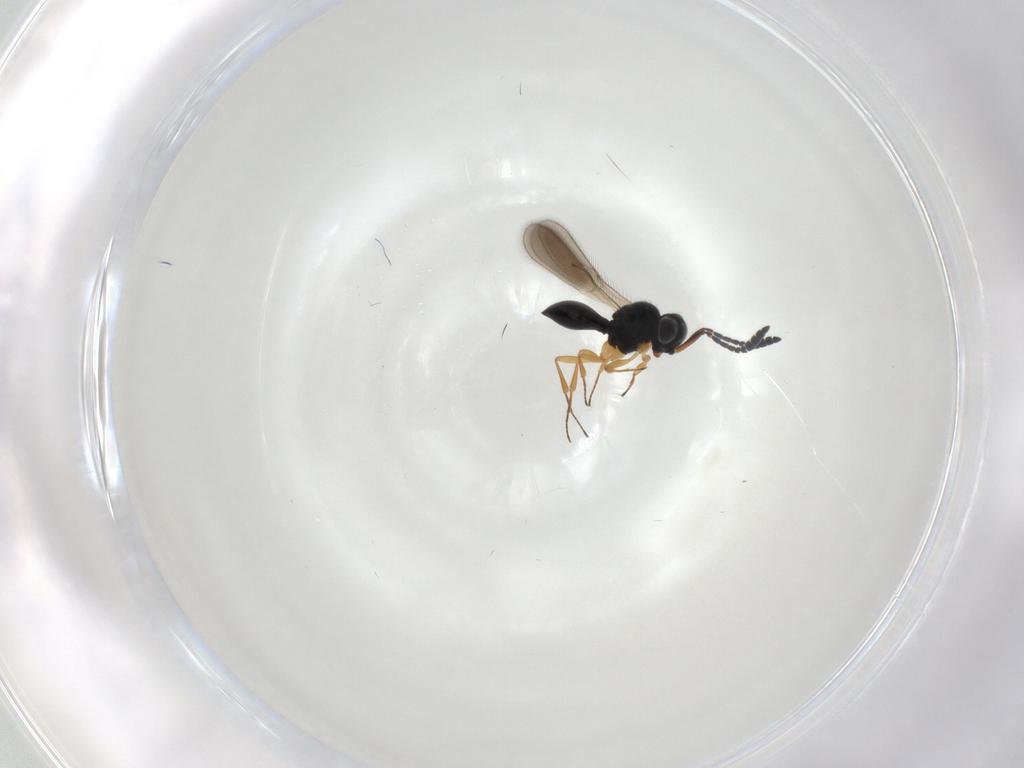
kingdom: Animalia
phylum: Arthropoda
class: Insecta
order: Hymenoptera
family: Scelionidae
